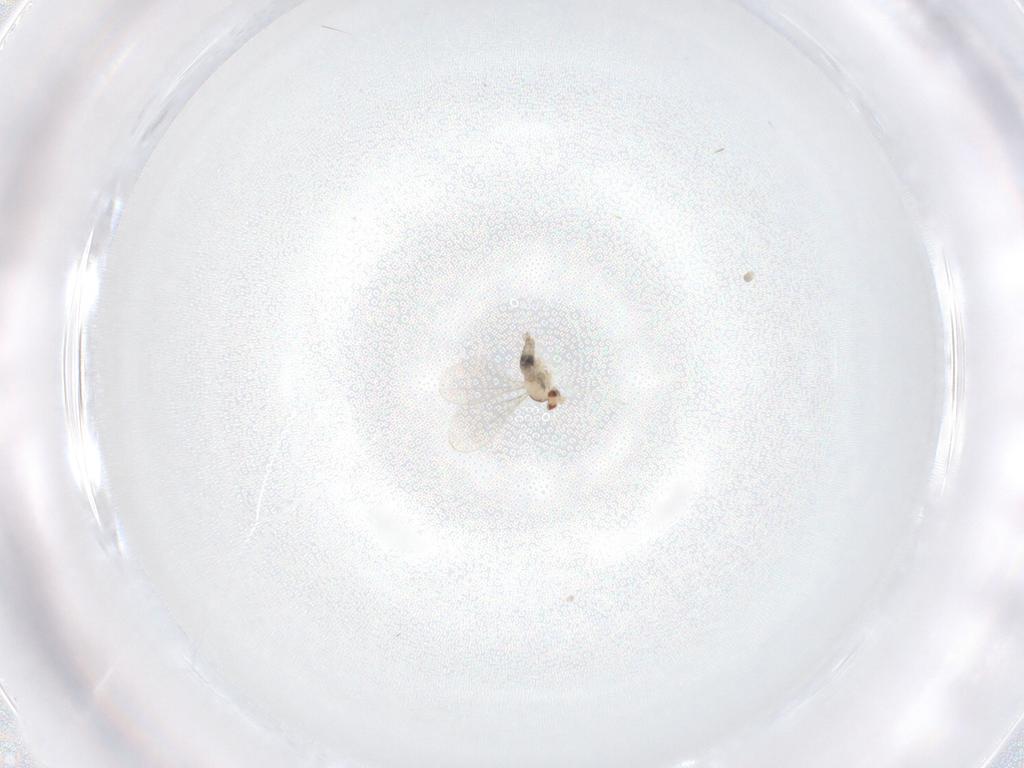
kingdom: Animalia
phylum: Arthropoda
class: Insecta
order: Diptera
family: Cecidomyiidae
